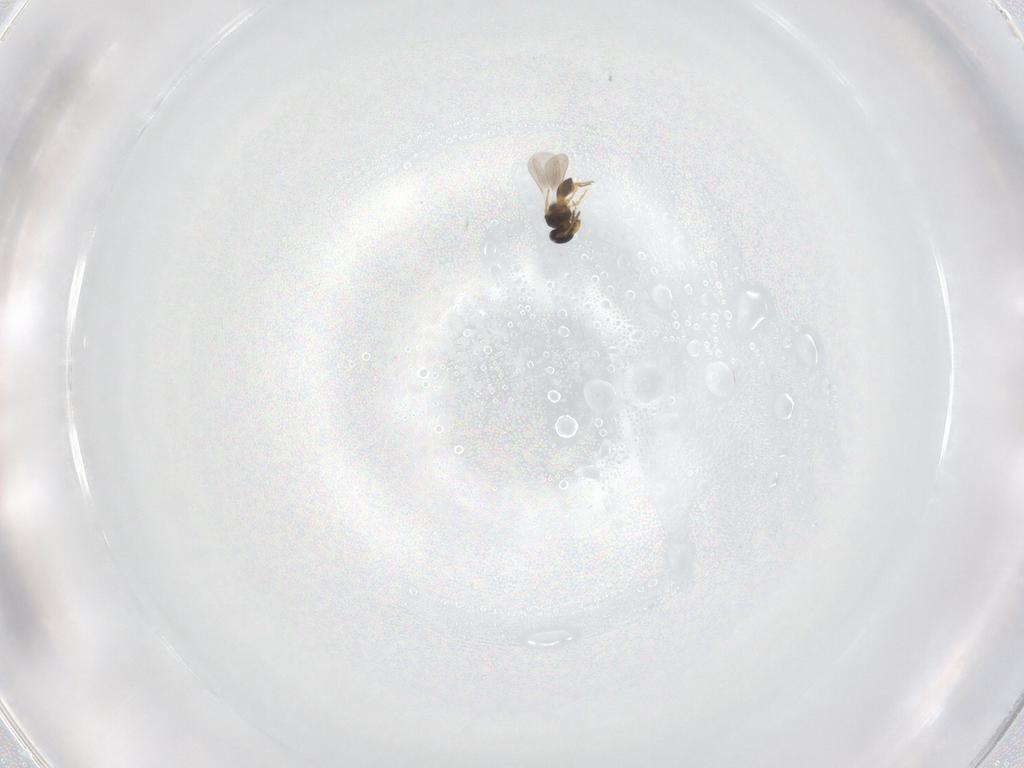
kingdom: Animalia
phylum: Arthropoda
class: Insecta
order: Hymenoptera
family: Platygastridae
